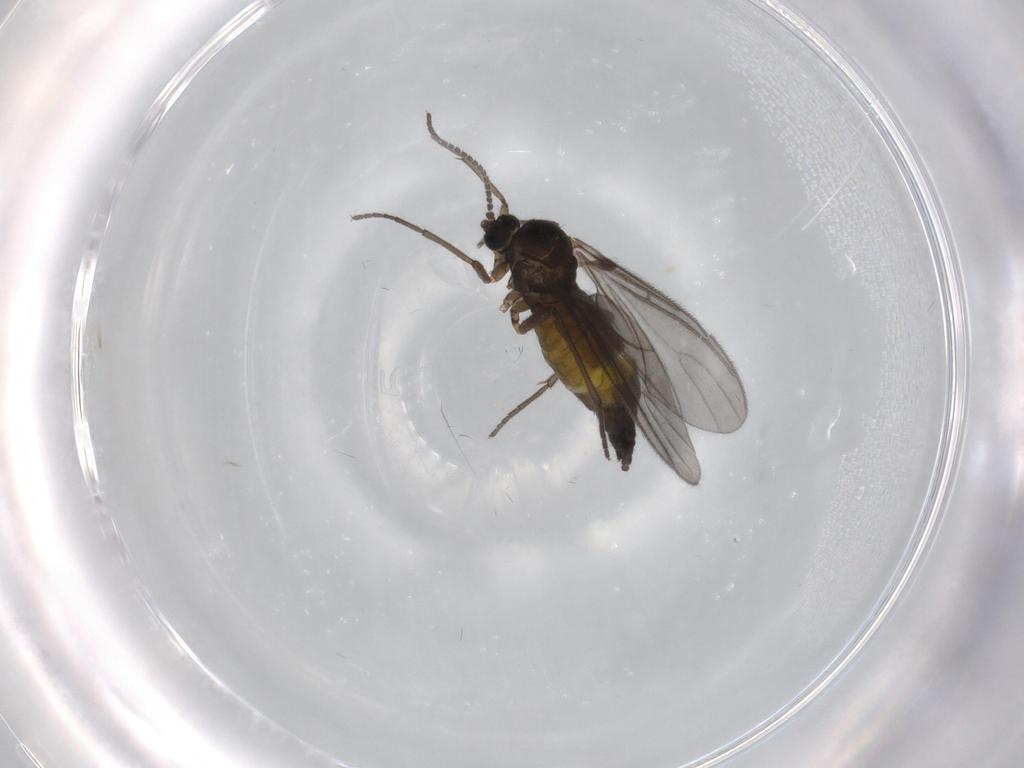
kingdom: Animalia
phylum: Arthropoda
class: Insecta
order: Diptera
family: Sciaridae
